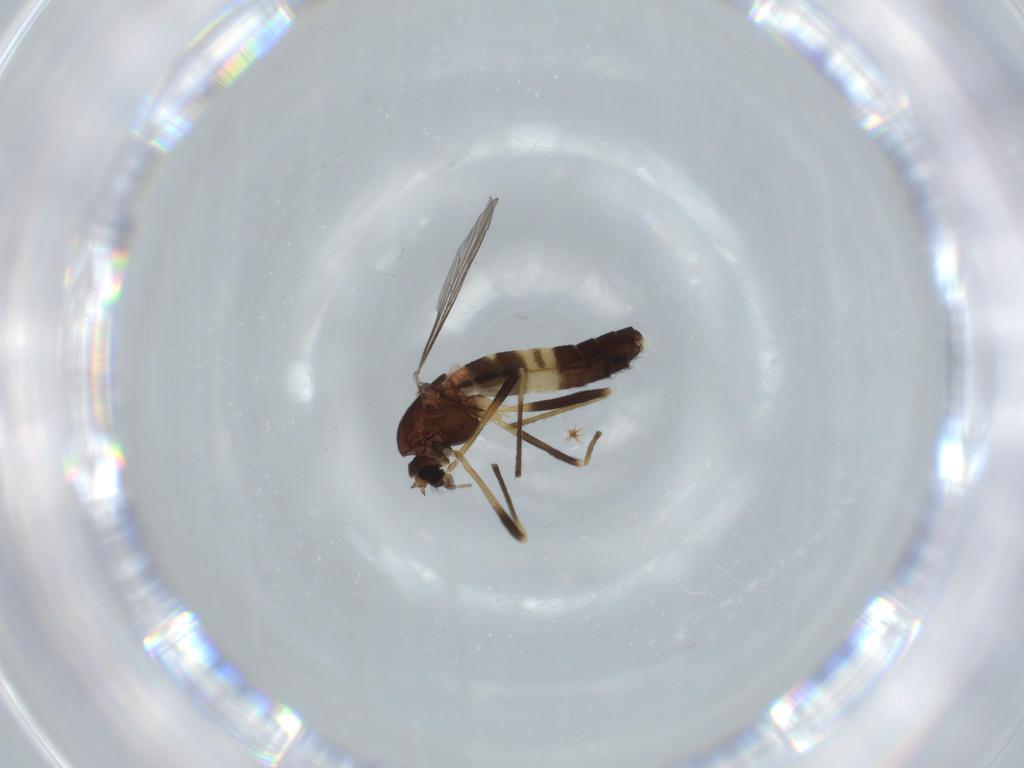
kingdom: Animalia
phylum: Arthropoda
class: Insecta
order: Diptera
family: Chironomidae
